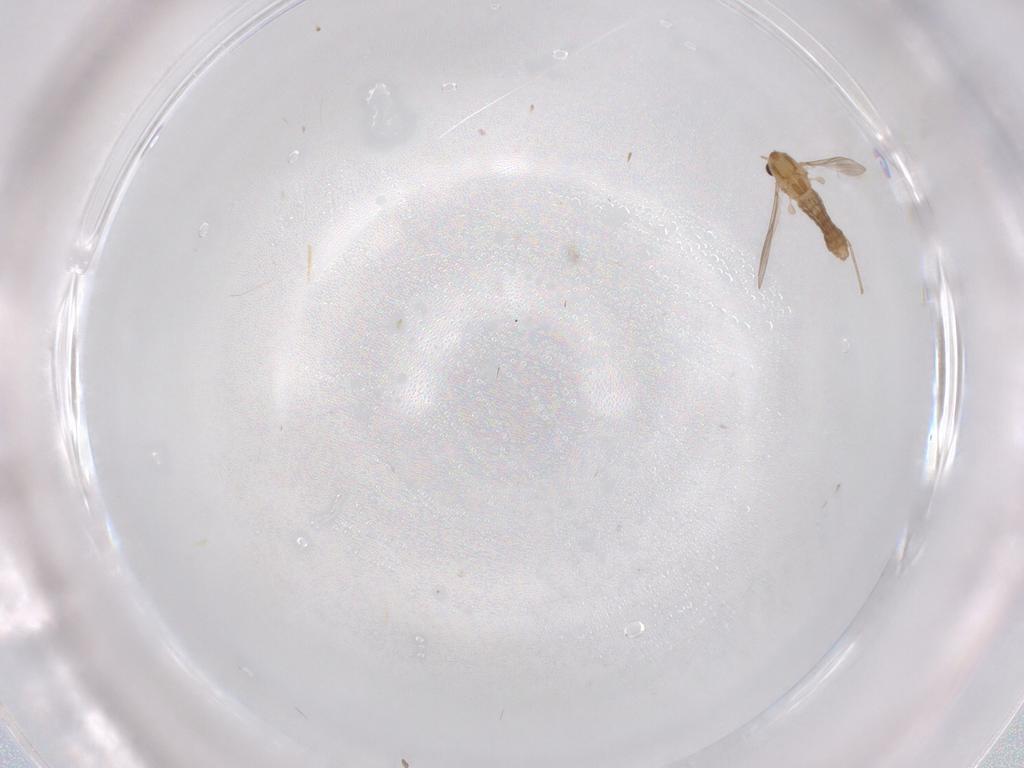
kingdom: Animalia
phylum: Arthropoda
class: Insecta
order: Diptera
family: Chironomidae
